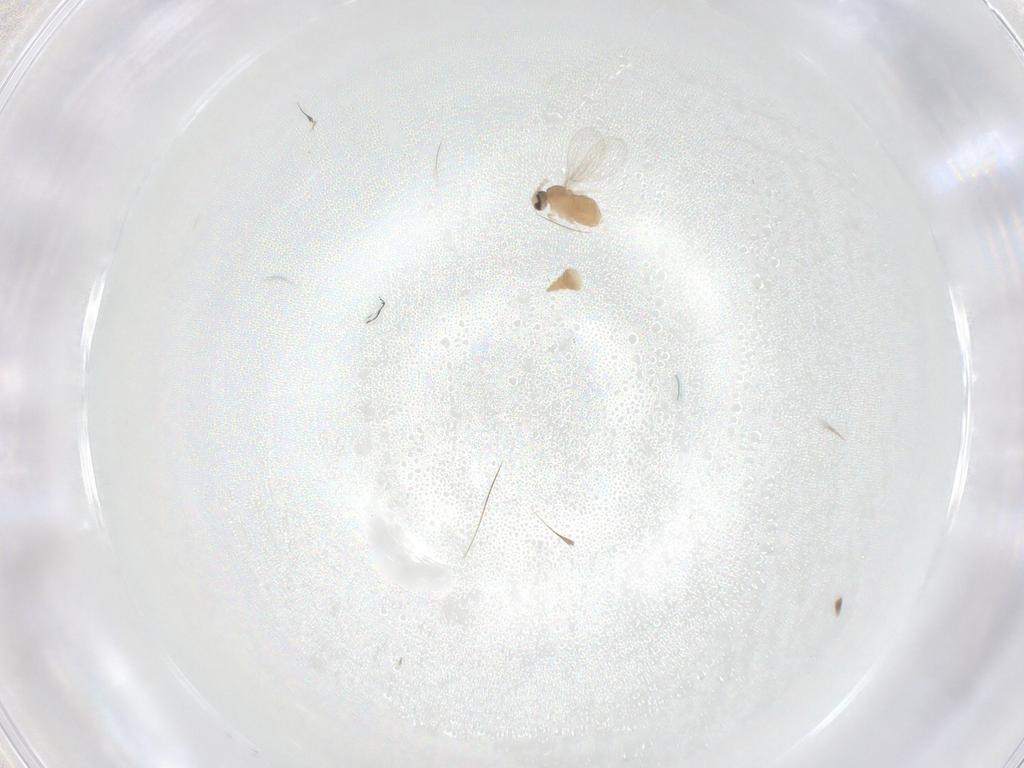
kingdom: Animalia
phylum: Arthropoda
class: Insecta
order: Diptera
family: Cecidomyiidae
